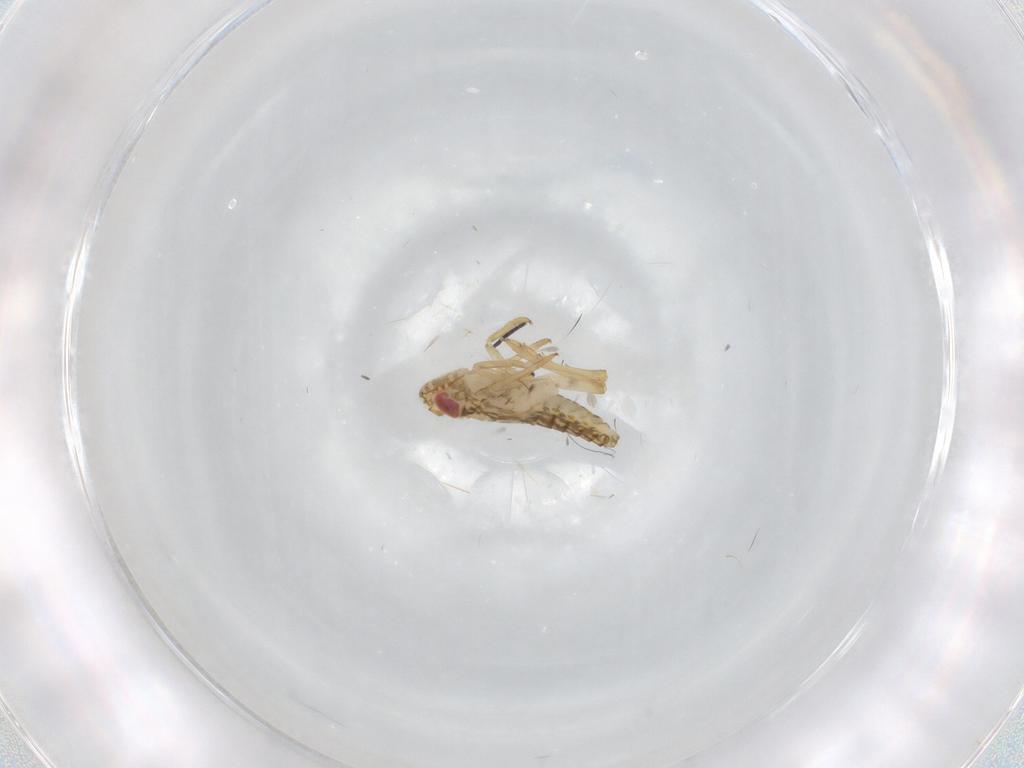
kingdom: Animalia
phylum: Arthropoda
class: Insecta
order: Hemiptera
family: Delphacidae
